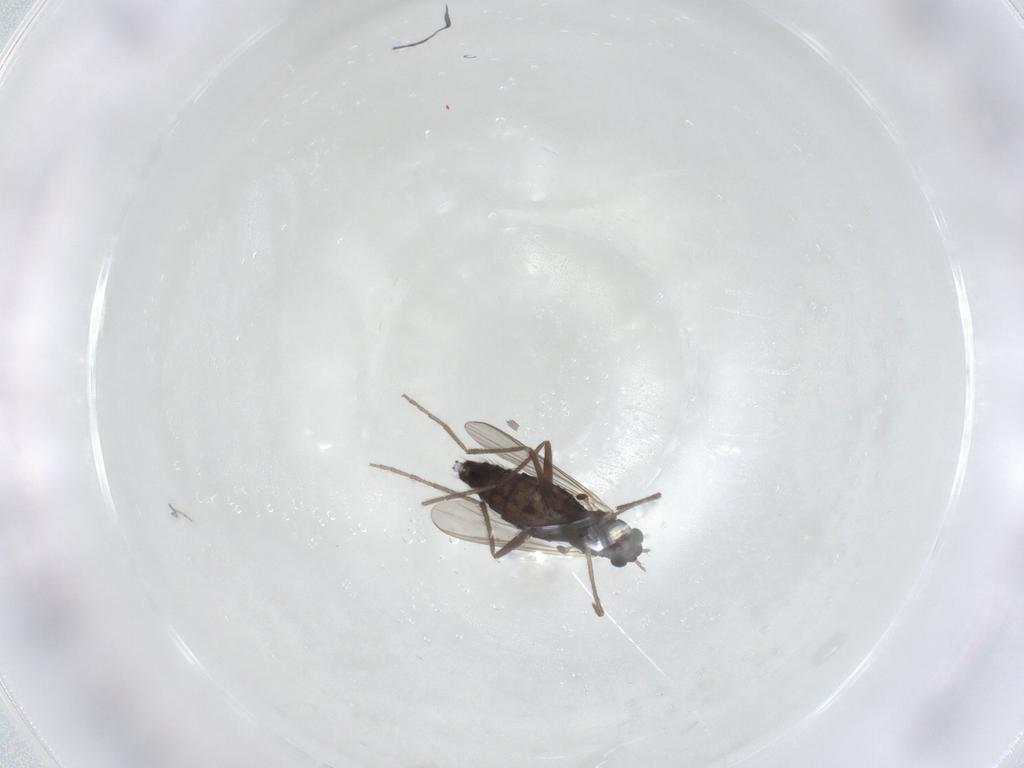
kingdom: Animalia
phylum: Arthropoda
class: Insecta
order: Diptera
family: Chironomidae
